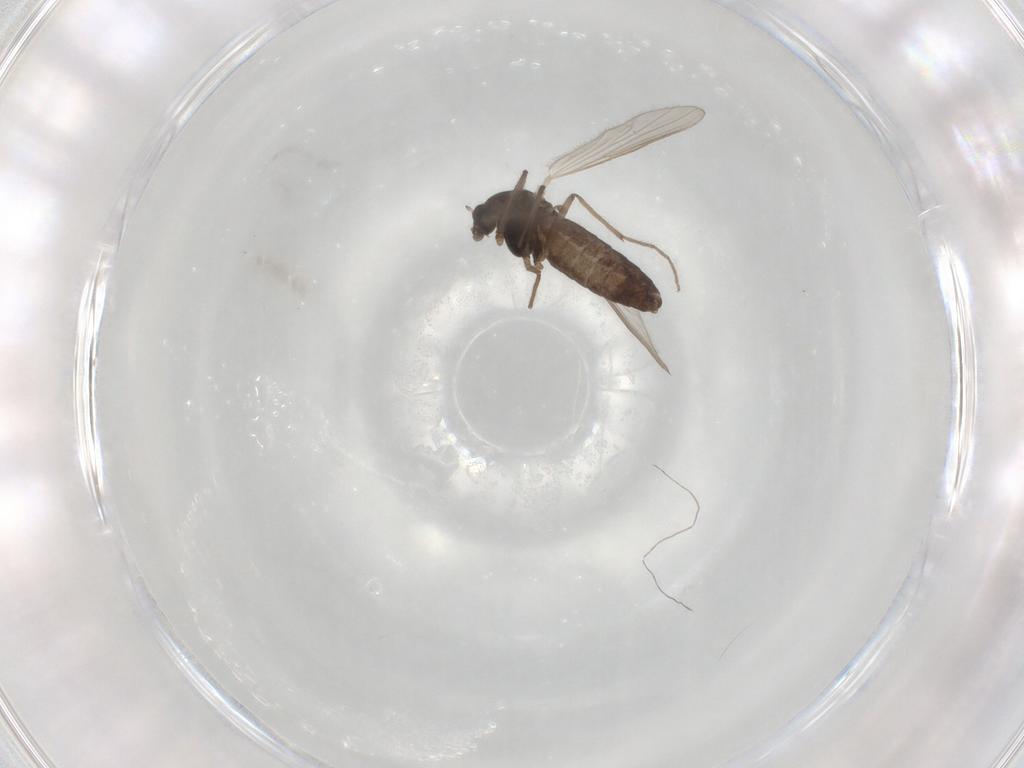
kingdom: Animalia
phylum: Arthropoda
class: Insecta
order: Diptera
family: Chironomidae
